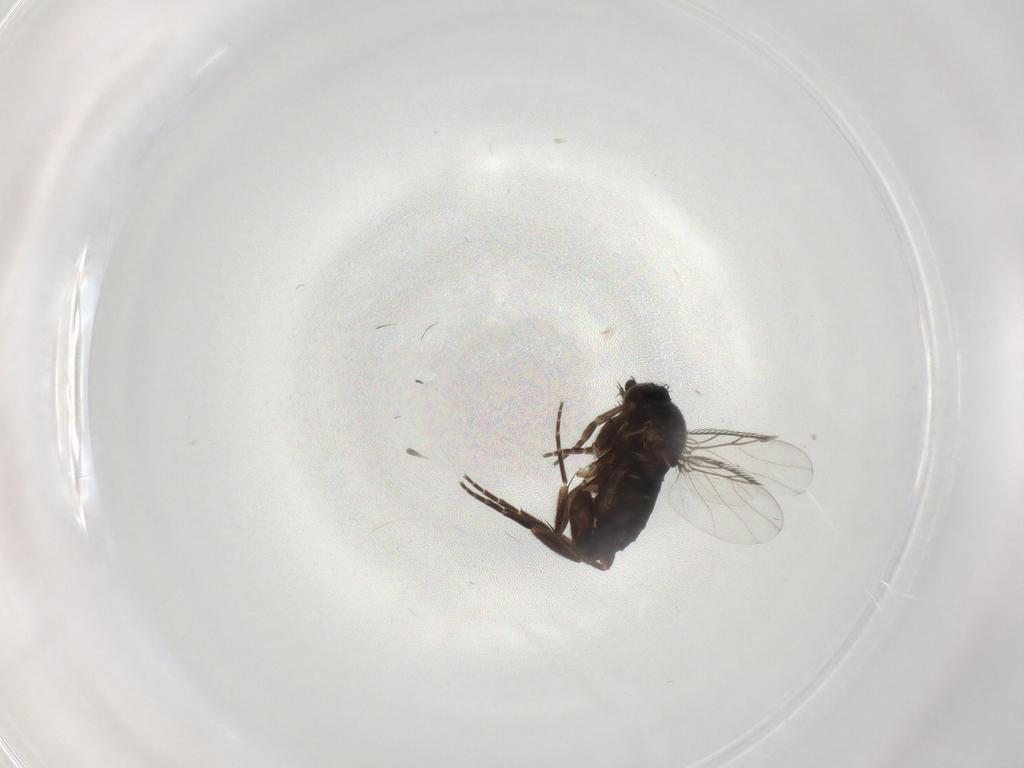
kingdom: Animalia
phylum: Arthropoda
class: Insecta
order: Diptera
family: Phoridae
